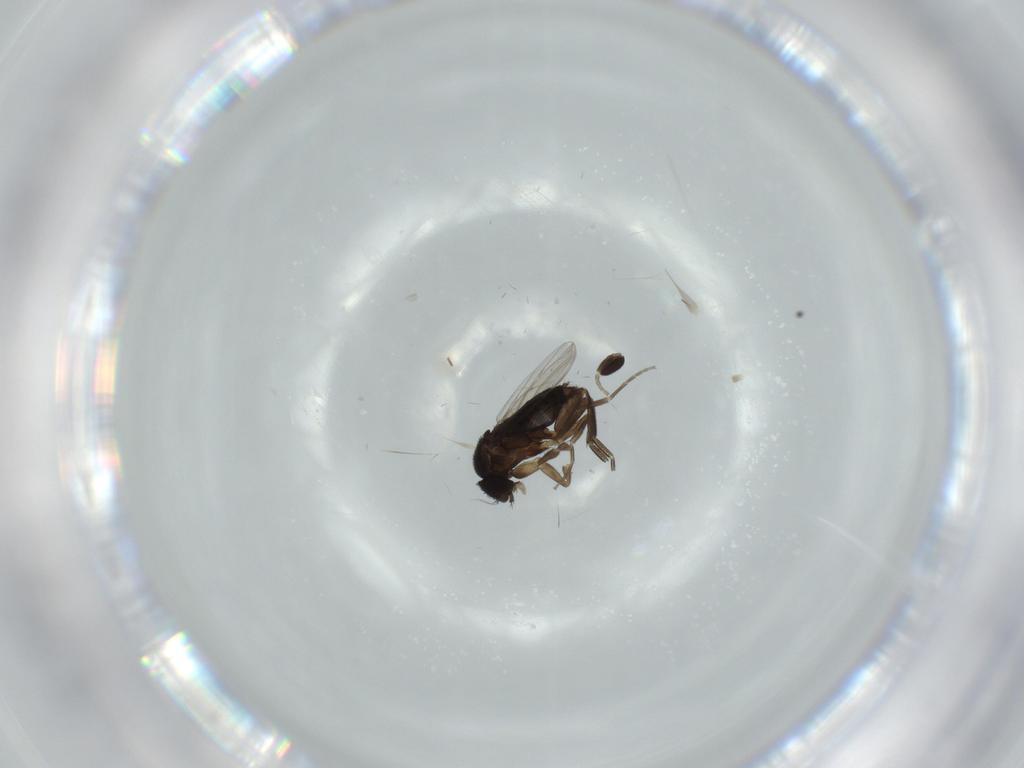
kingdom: Animalia
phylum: Arthropoda
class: Insecta
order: Diptera
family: Phoridae
